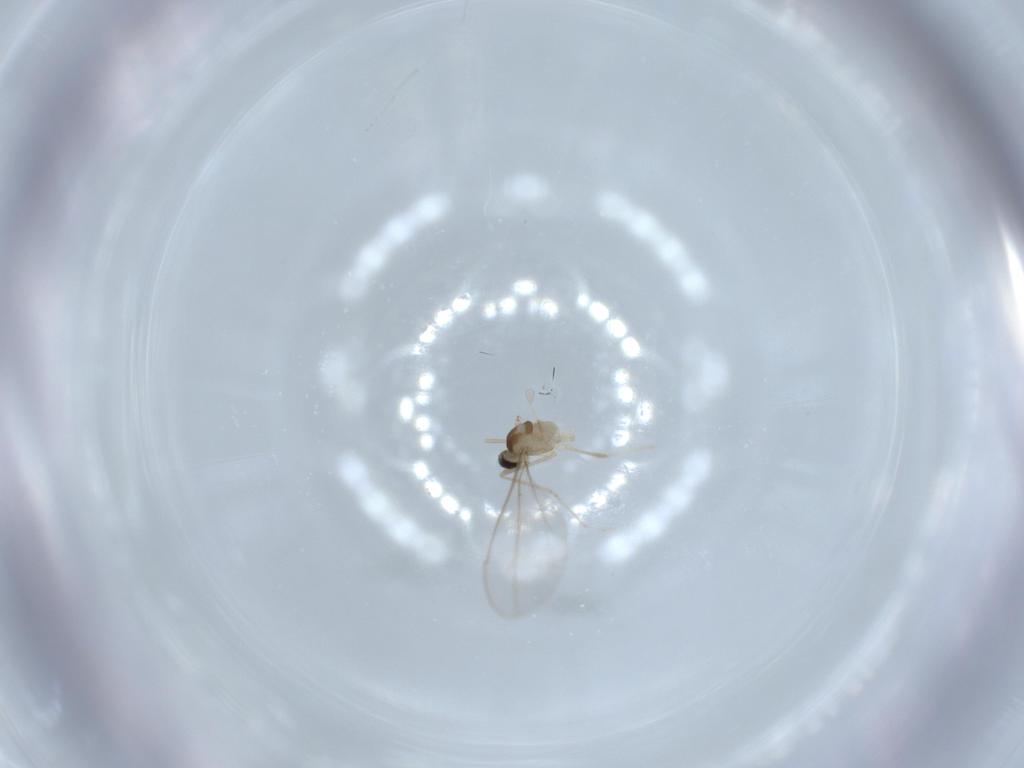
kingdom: Animalia
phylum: Arthropoda
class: Insecta
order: Diptera
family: Cecidomyiidae
